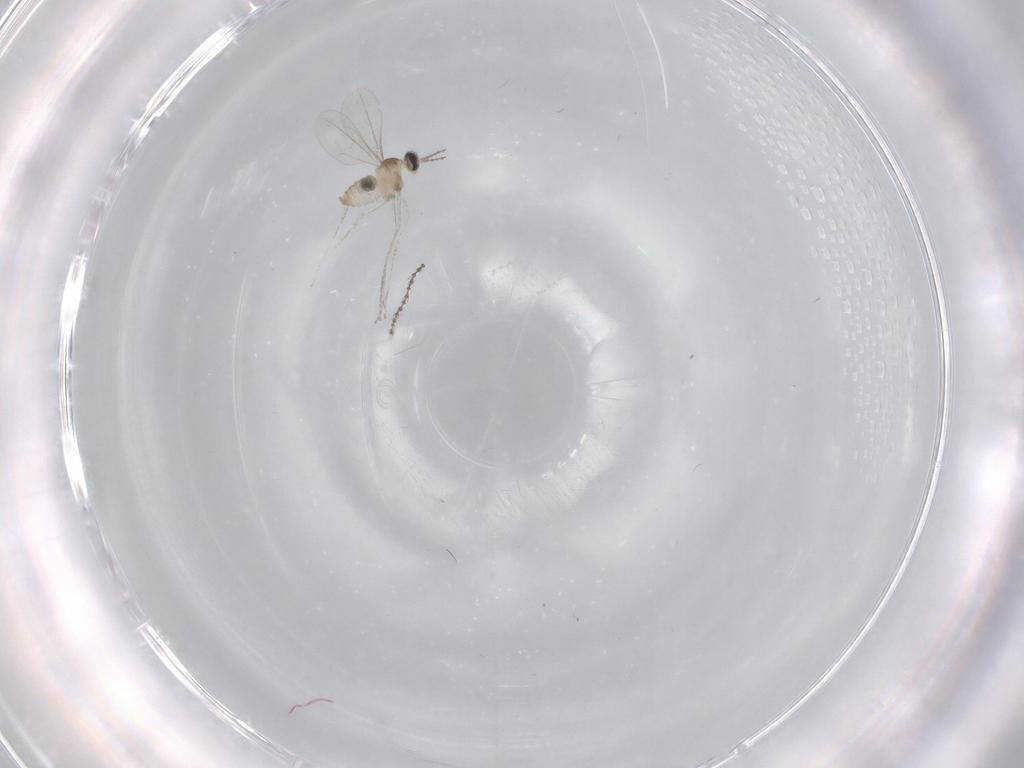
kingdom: Animalia
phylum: Arthropoda
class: Insecta
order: Diptera
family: Cecidomyiidae
